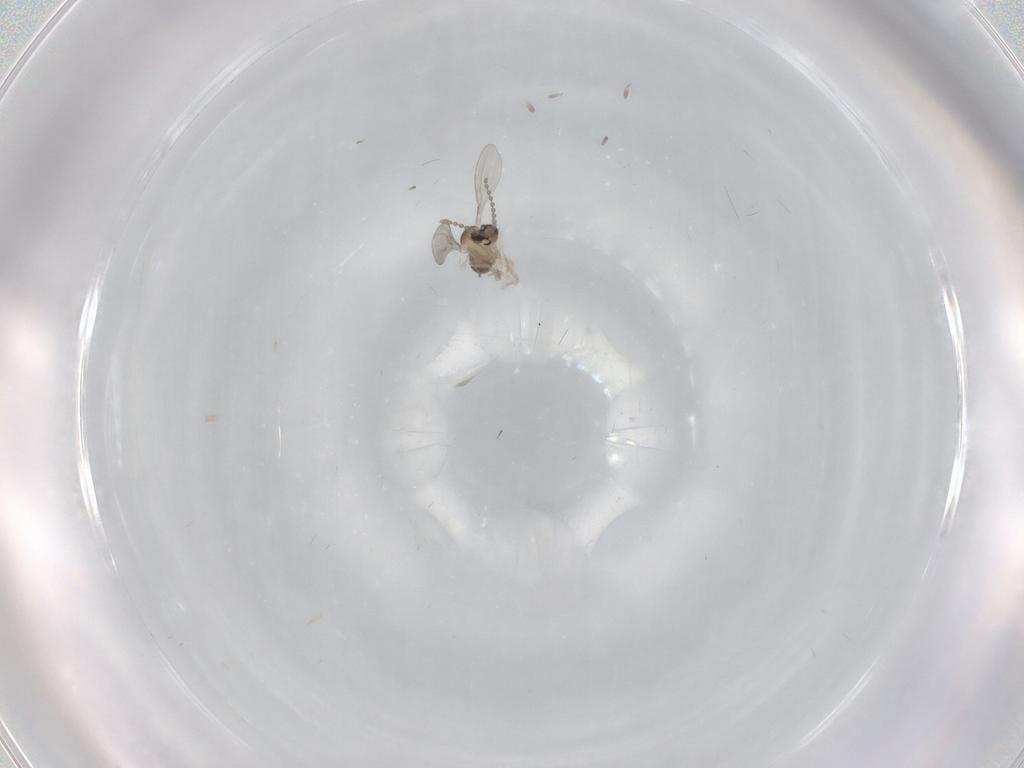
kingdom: Animalia
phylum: Arthropoda
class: Insecta
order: Diptera
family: Cecidomyiidae
